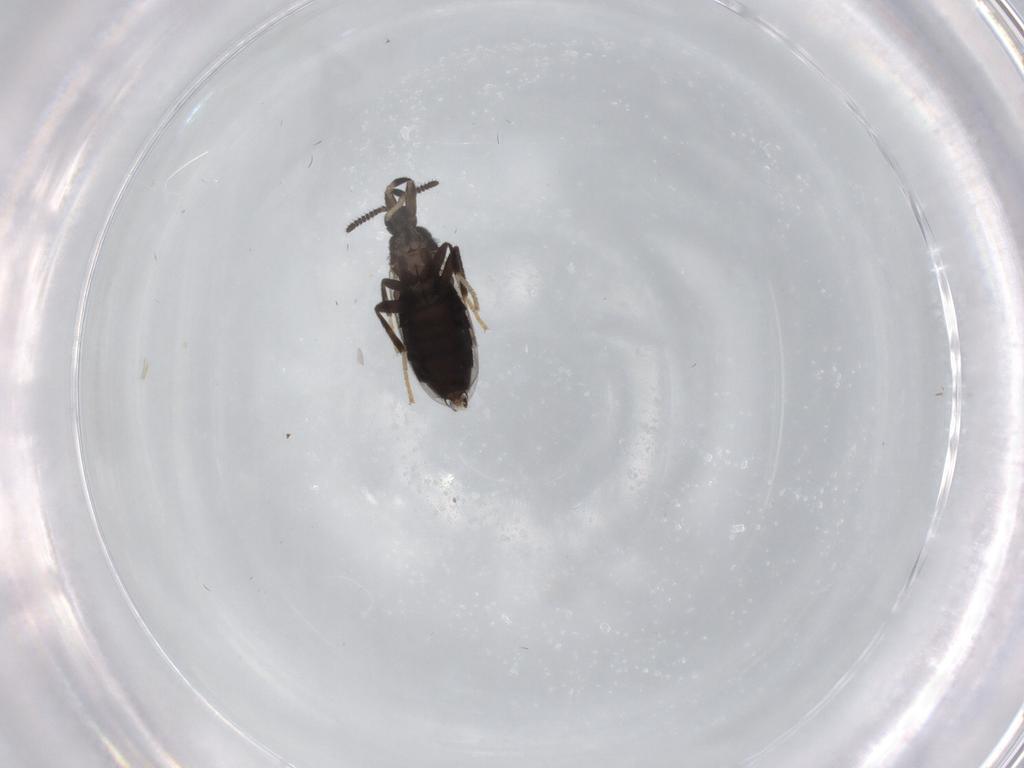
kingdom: Animalia
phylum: Arthropoda
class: Insecta
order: Diptera
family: Scatopsidae
